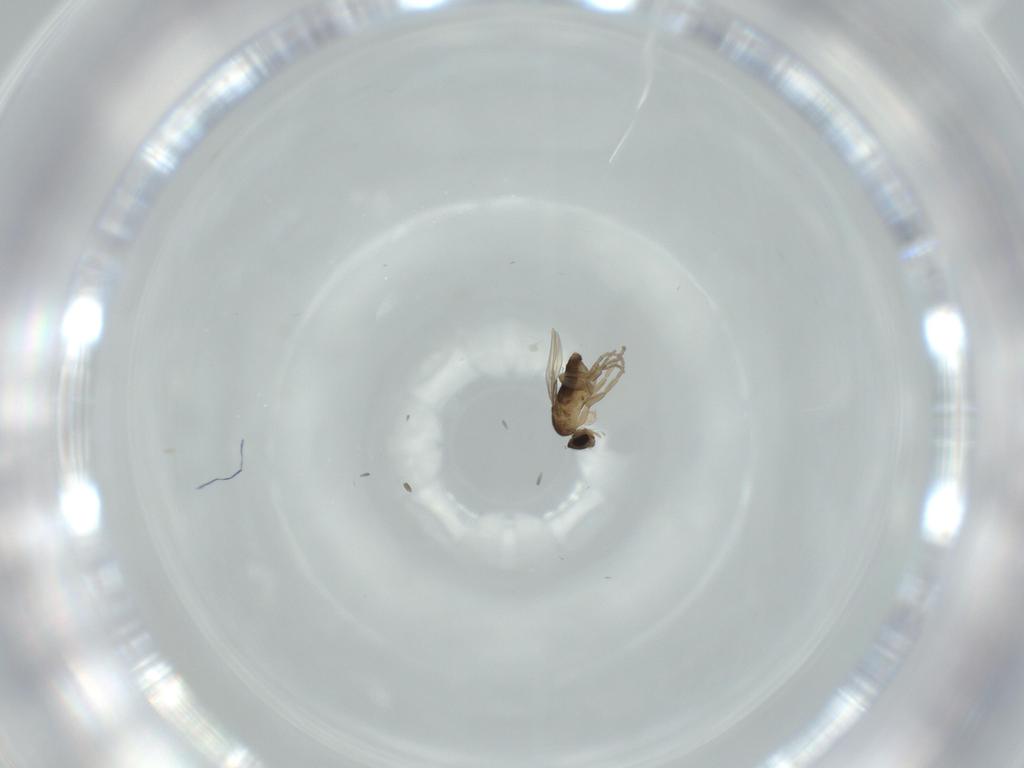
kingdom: Animalia
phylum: Arthropoda
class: Insecta
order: Diptera
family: Phoridae
